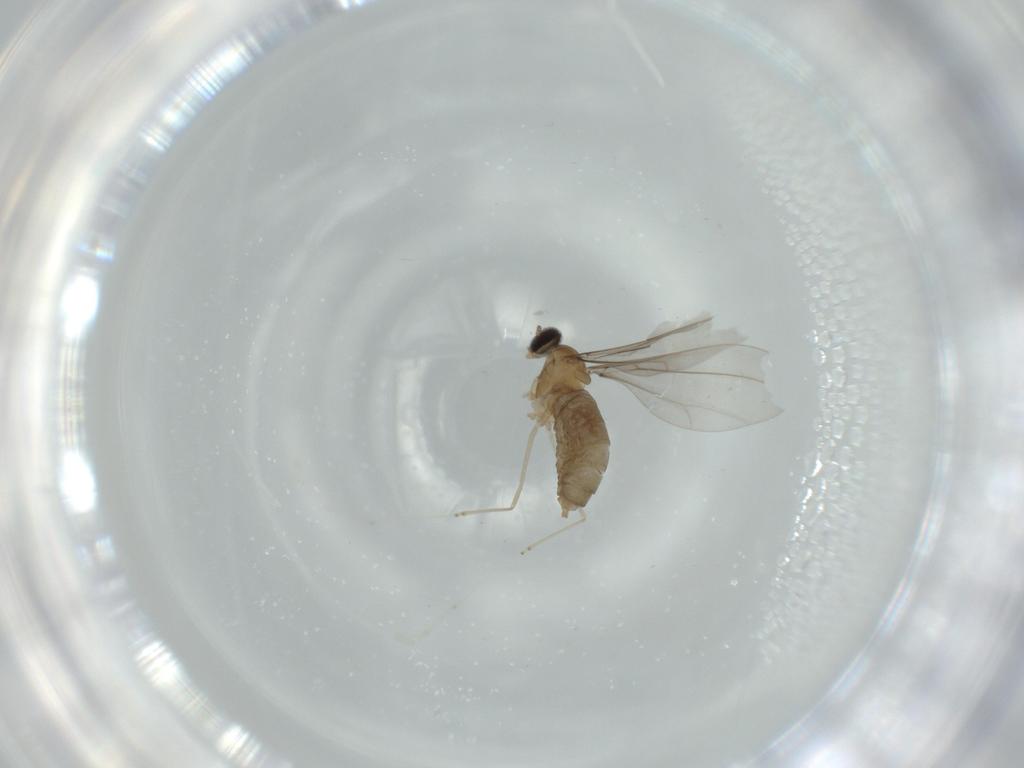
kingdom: Animalia
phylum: Arthropoda
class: Insecta
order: Diptera
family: Cecidomyiidae
